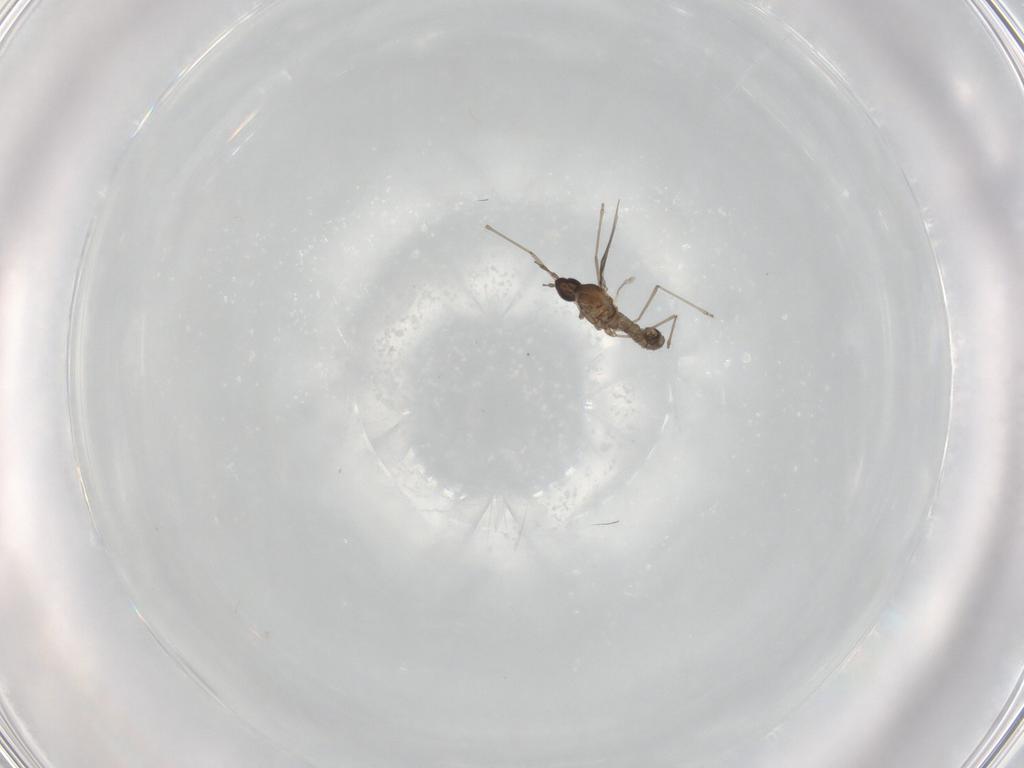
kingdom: Animalia
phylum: Arthropoda
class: Insecta
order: Diptera
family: Cecidomyiidae
